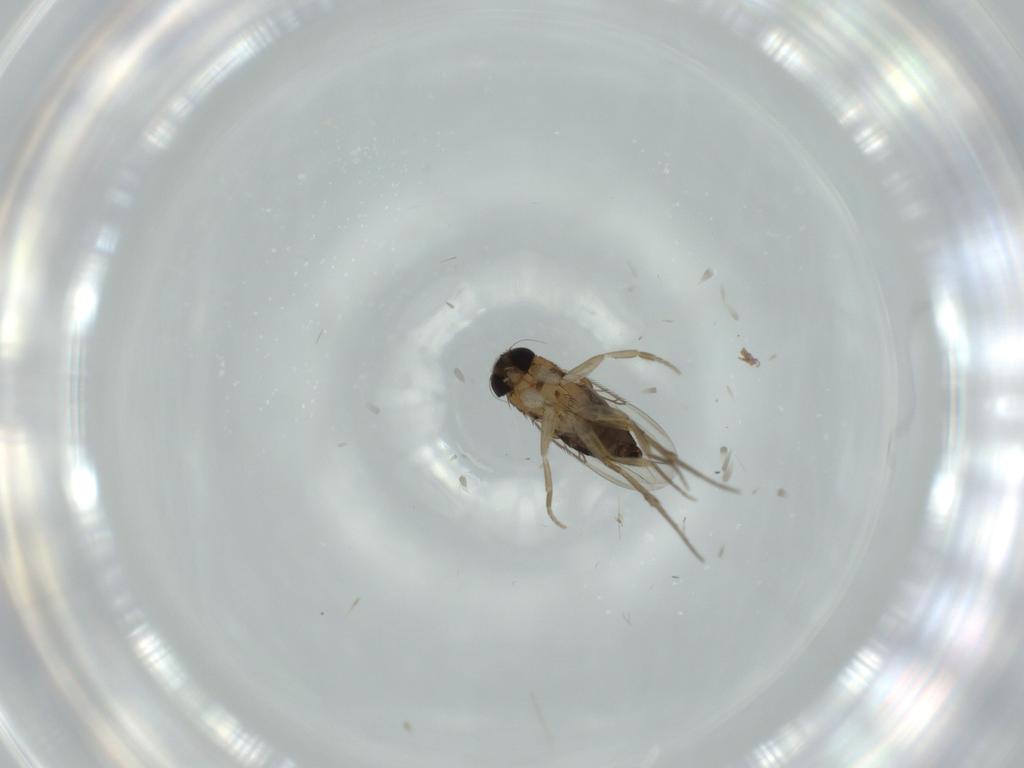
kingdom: Animalia
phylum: Arthropoda
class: Insecta
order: Diptera
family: Phoridae
